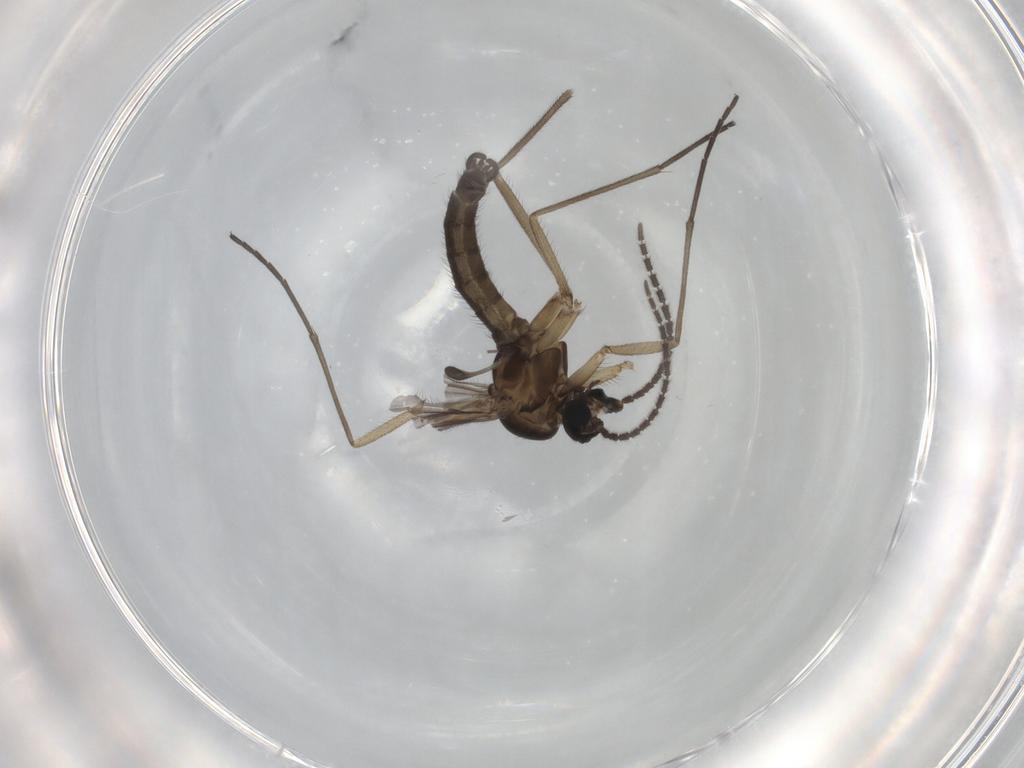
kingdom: Animalia
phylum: Arthropoda
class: Insecta
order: Diptera
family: Sciaridae
